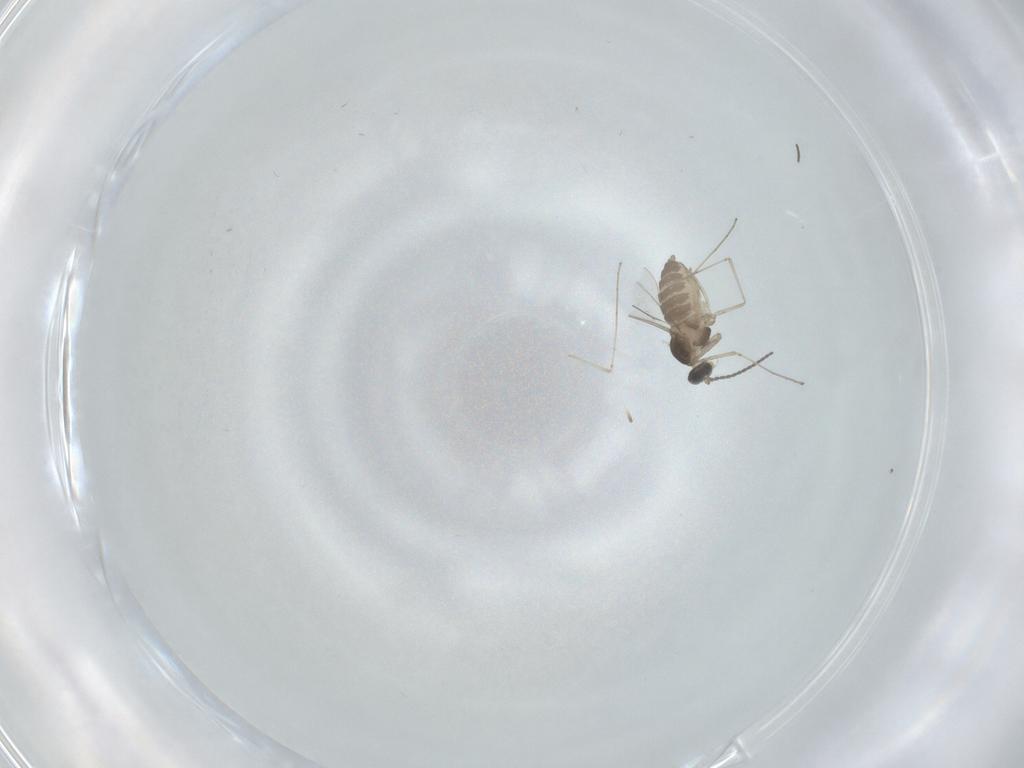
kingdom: Animalia
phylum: Arthropoda
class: Insecta
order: Diptera
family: Cecidomyiidae
